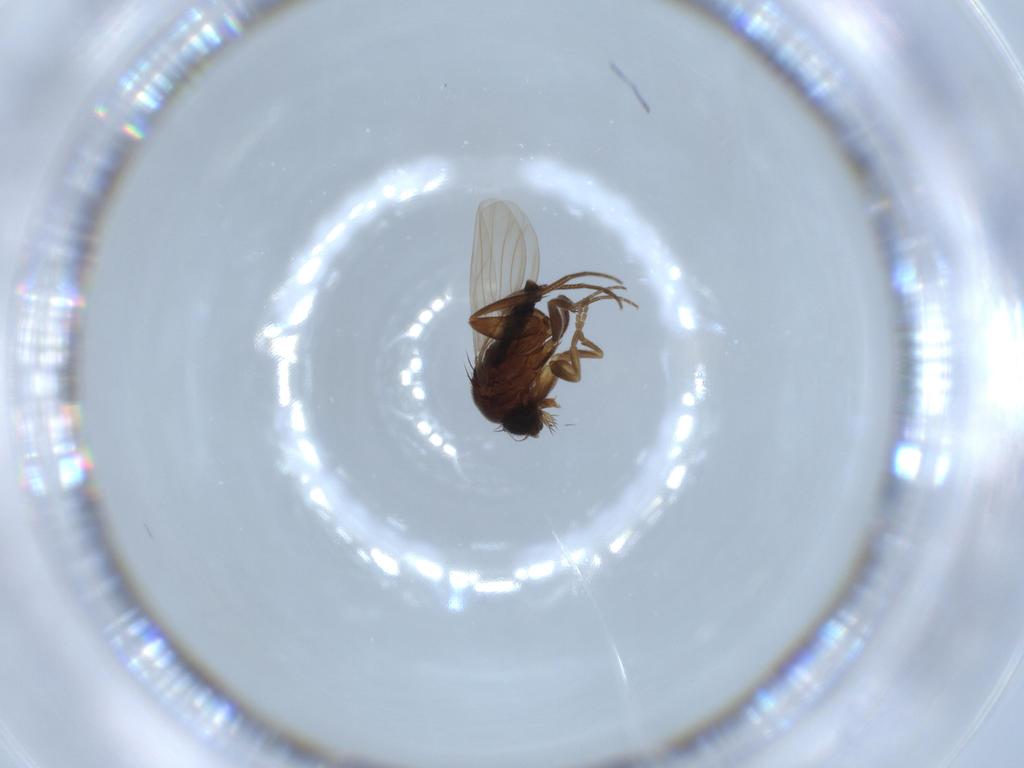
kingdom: Animalia
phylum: Arthropoda
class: Insecta
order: Diptera
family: Phoridae
